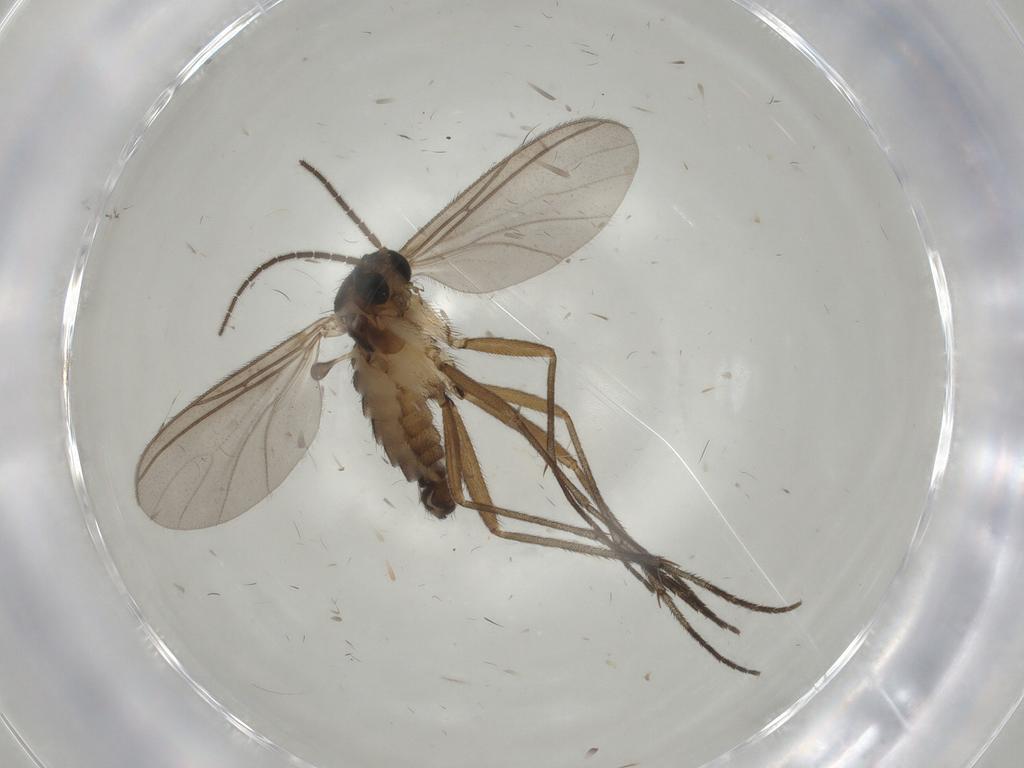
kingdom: Animalia
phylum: Arthropoda
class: Insecta
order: Diptera
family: Sciaridae
